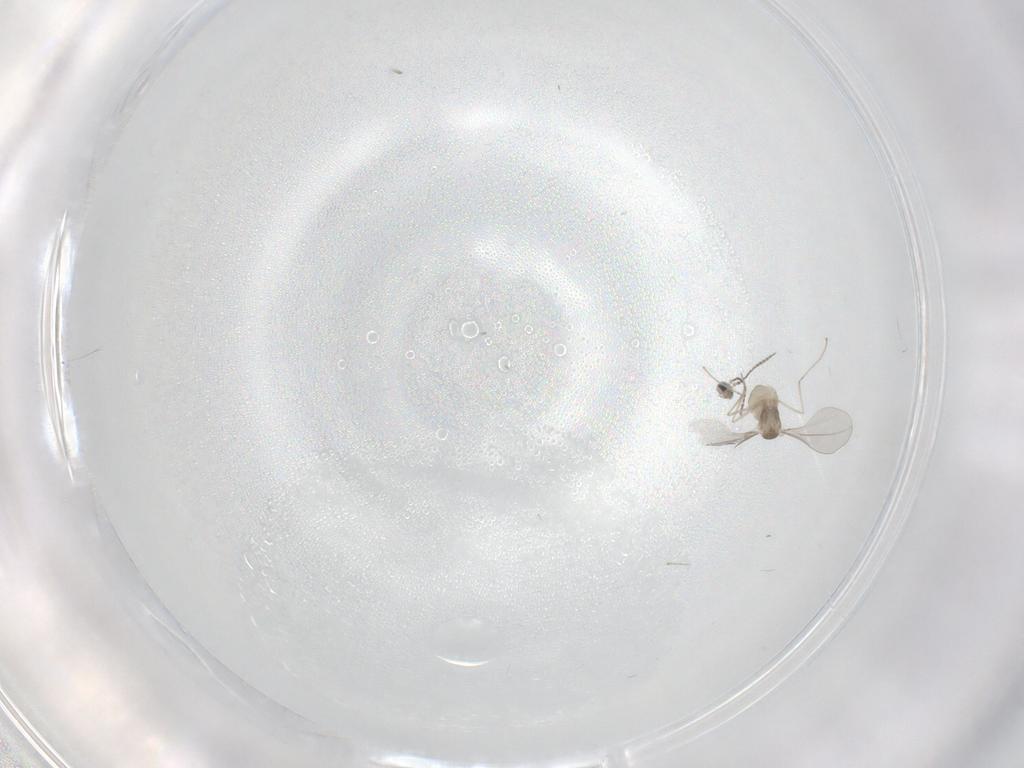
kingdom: Animalia
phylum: Arthropoda
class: Insecta
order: Diptera
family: Cecidomyiidae
